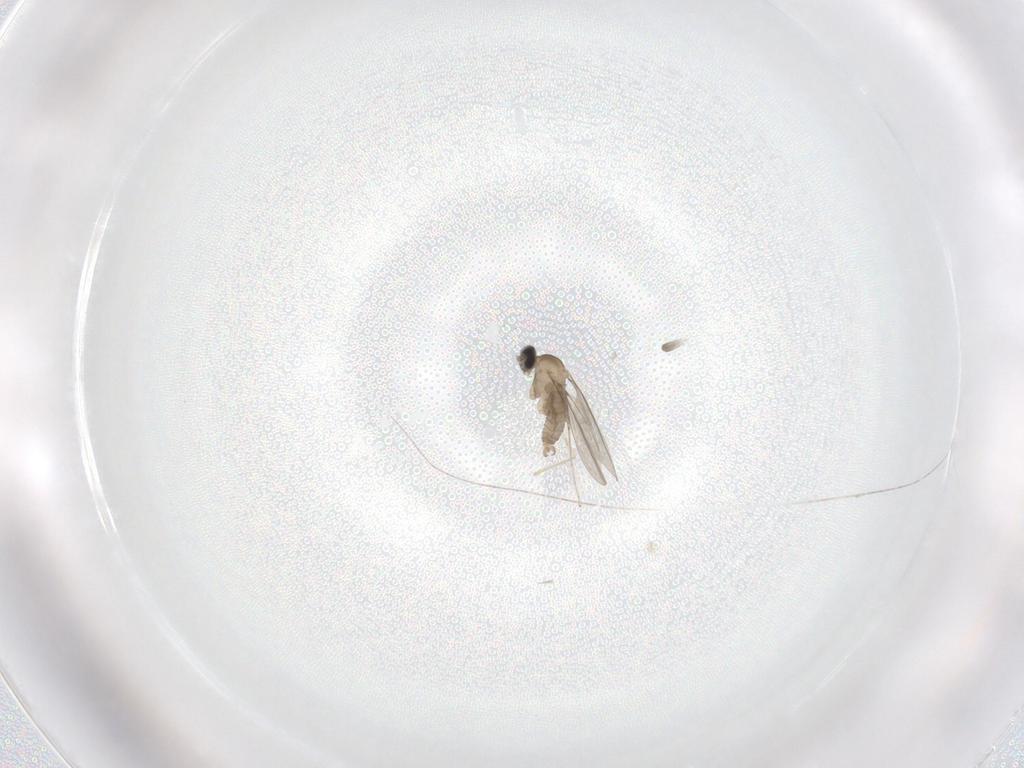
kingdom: Animalia
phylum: Arthropoda
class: Insecta
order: Diptera
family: Cecidomyiidae
